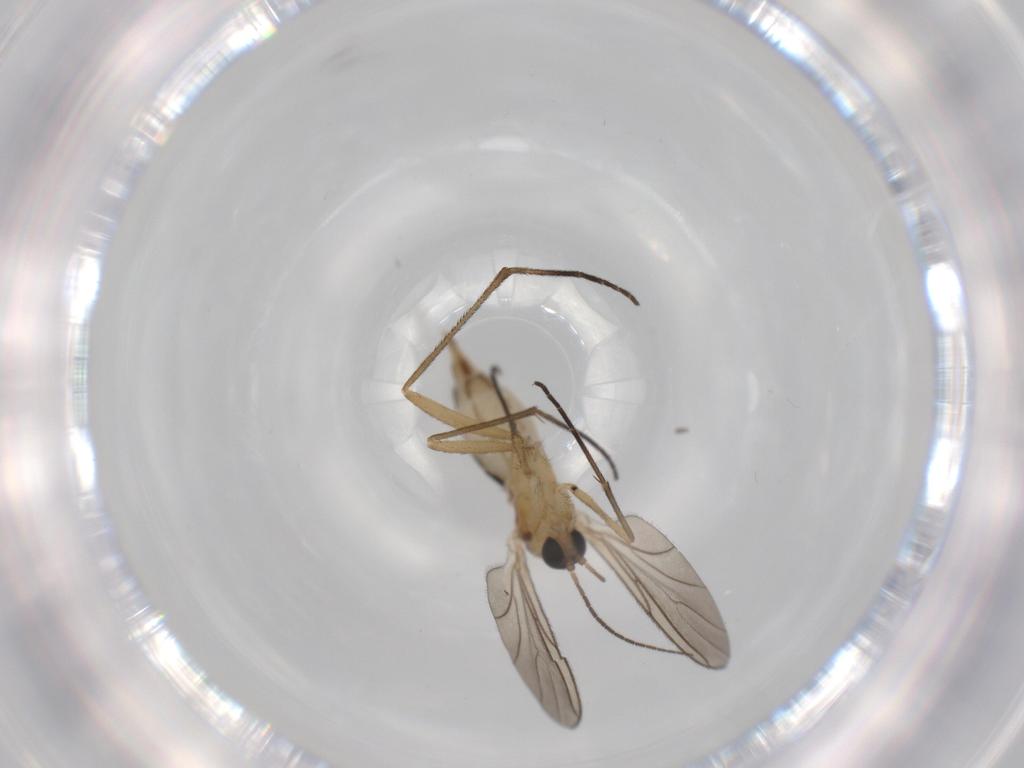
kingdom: Animalia
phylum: Arthropoda
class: Insecta
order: Diptera
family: Sciaridae
